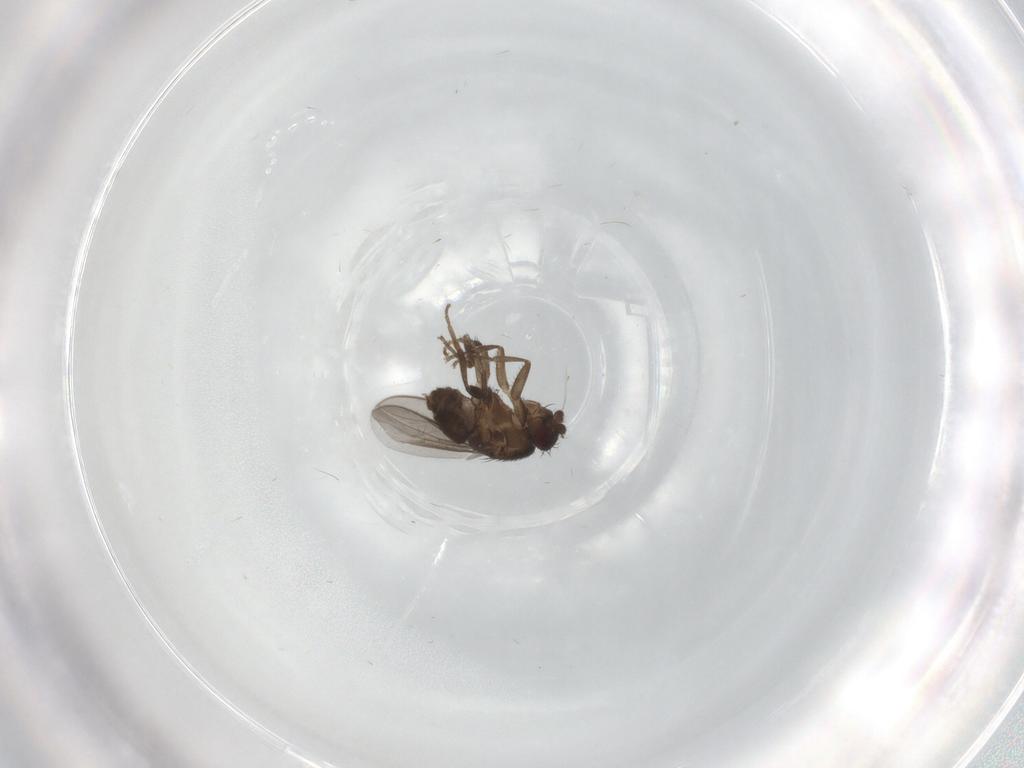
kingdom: Animalia
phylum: Arthropoda
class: Insecta
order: Diptera
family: Sphaeroceridae
